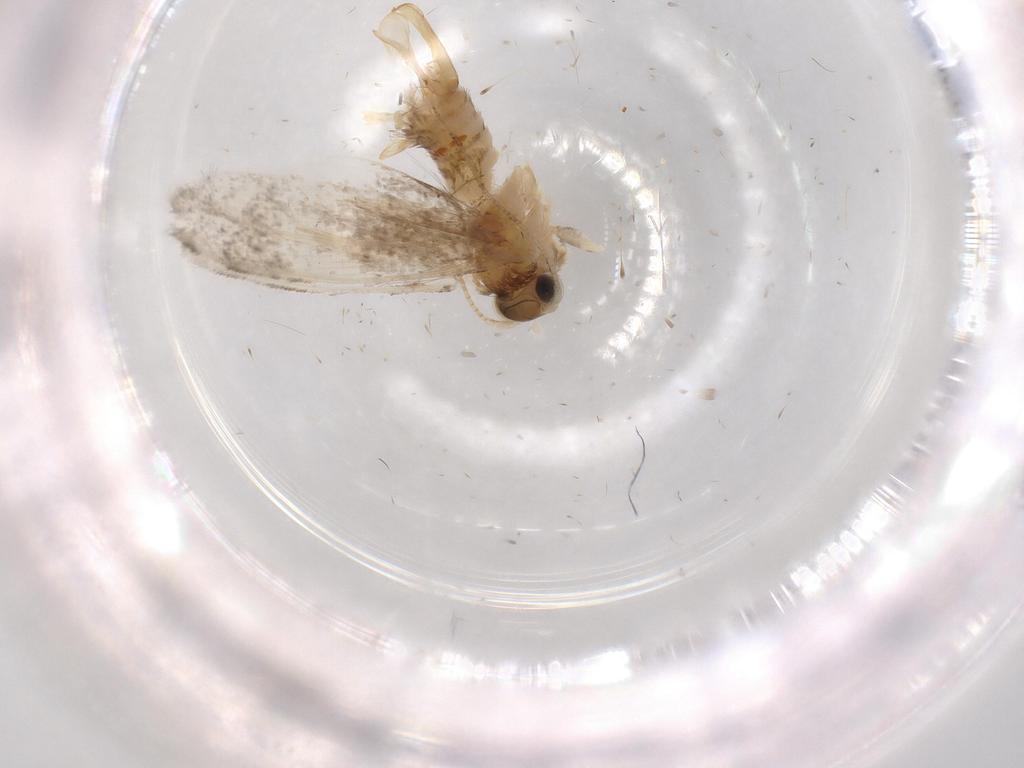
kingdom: Animalia
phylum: Arthropoda
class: Insecta
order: Lepidoptera
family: Tineidae
